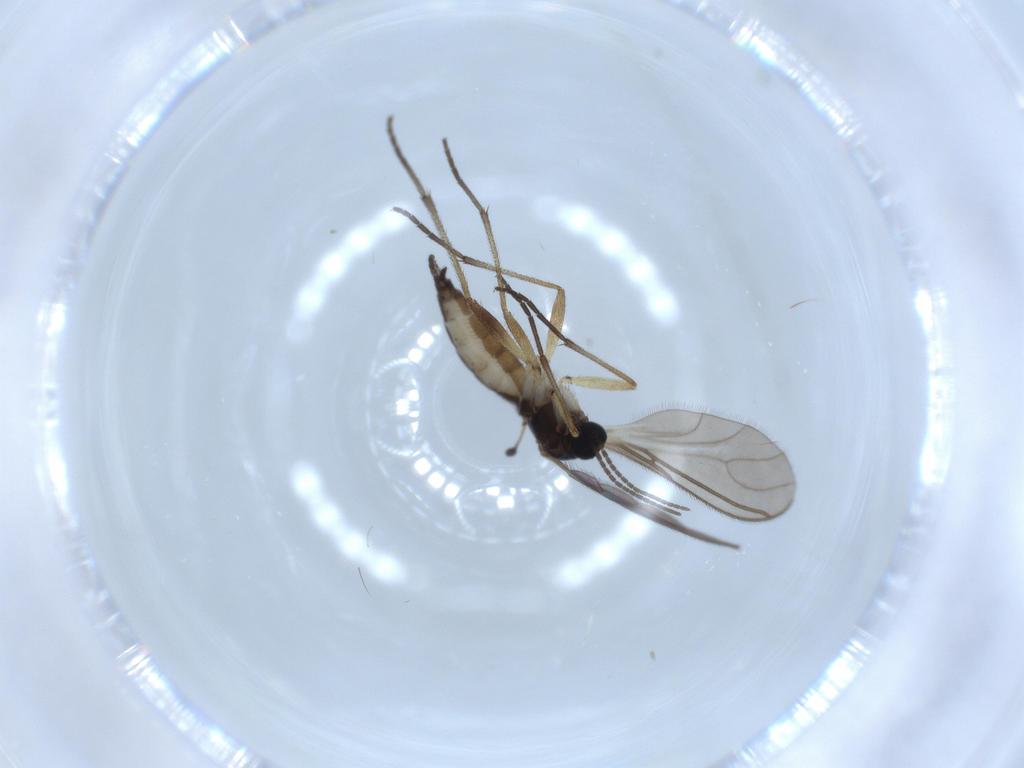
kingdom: Animalia
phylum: Arthropoda
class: Insecta
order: Diptera
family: Sciaridae
